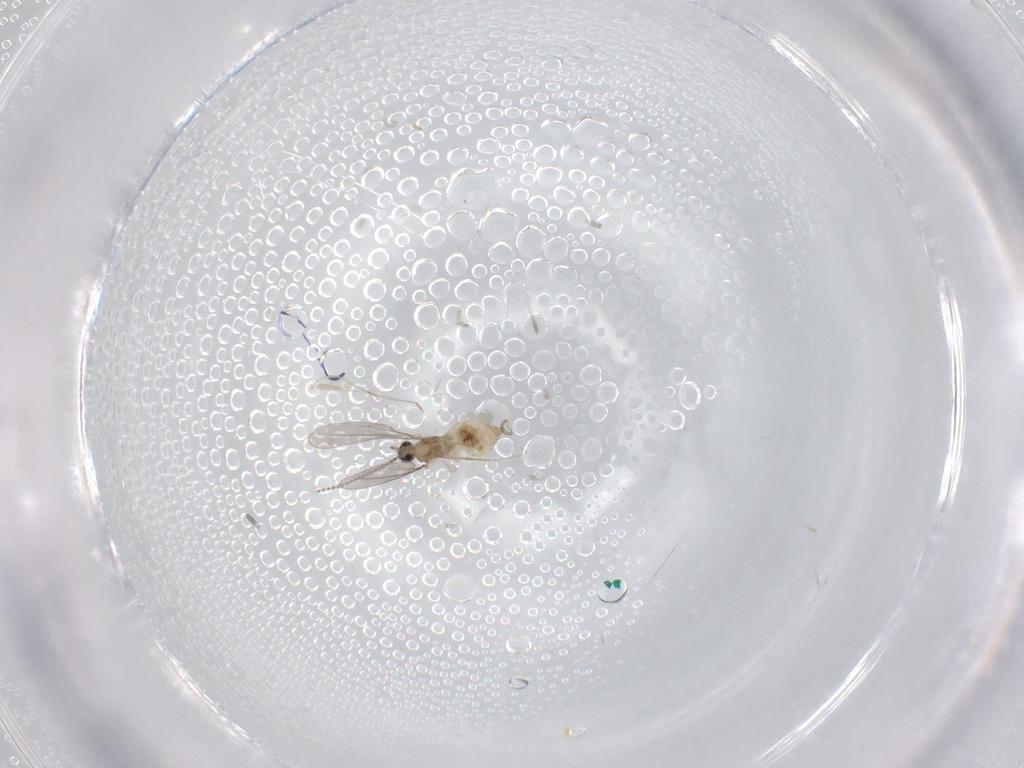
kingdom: Animalia
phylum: Arthropoda
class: Insecta
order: Diptera
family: Cecidomyiidae
